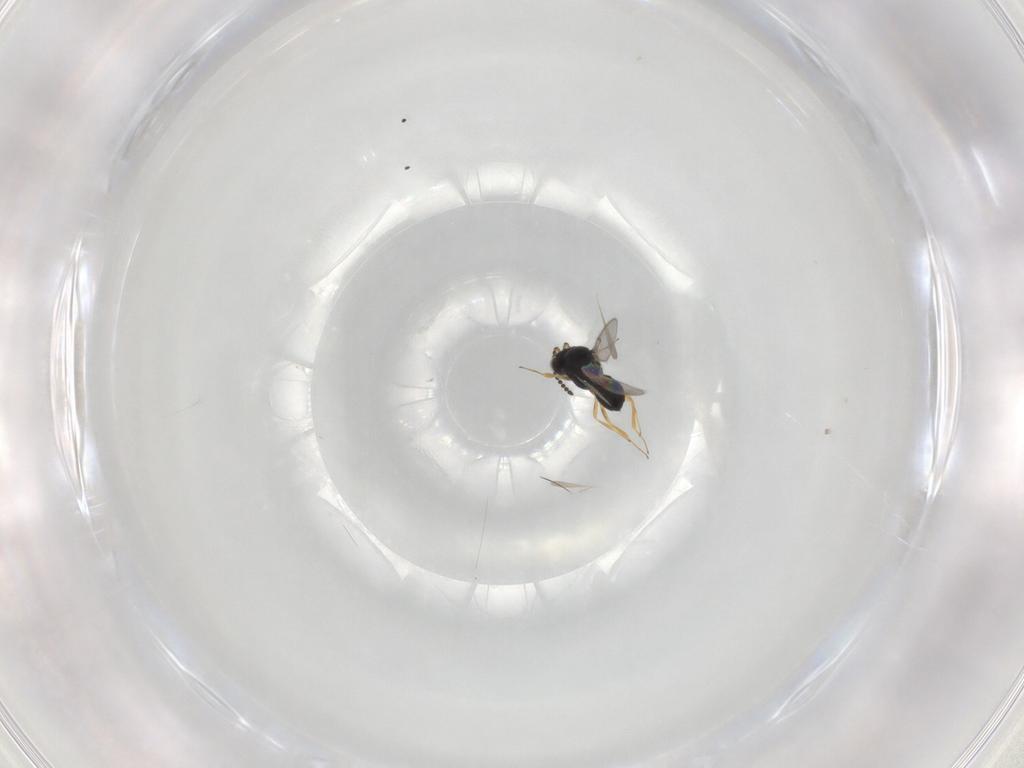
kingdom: Animalia
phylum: Arthropoda
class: Insecta
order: Hymenoptera
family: Scelionidae
